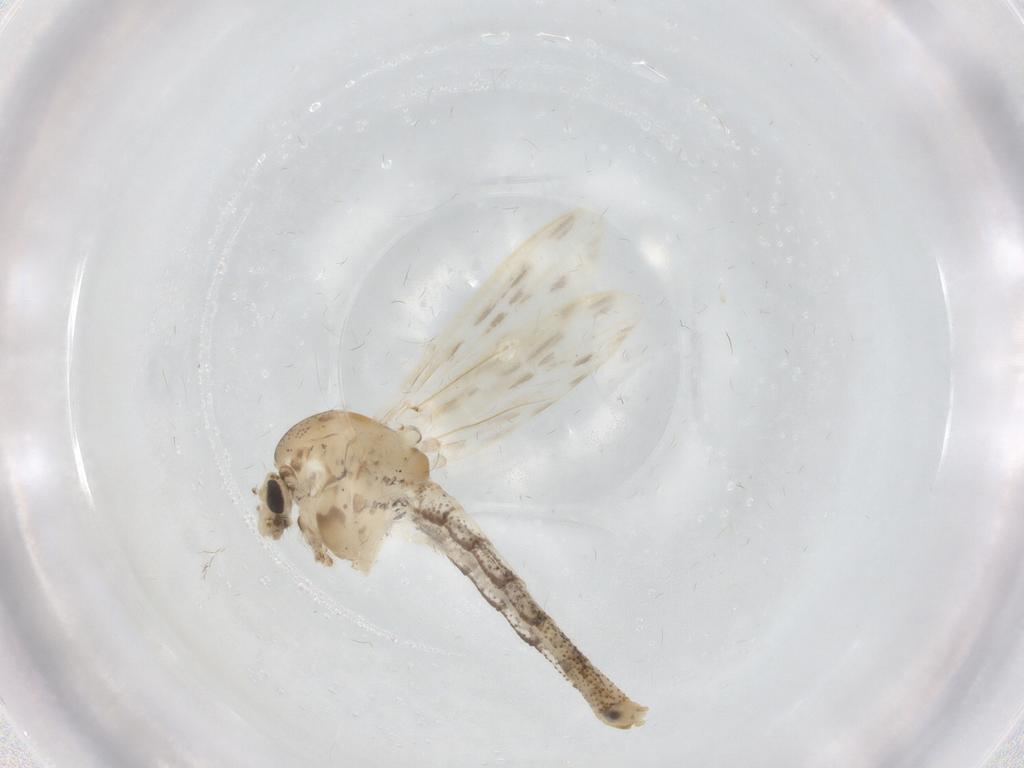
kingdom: Animalia
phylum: Arthropoda
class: Insecta
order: Diptera
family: Chaoboridae
